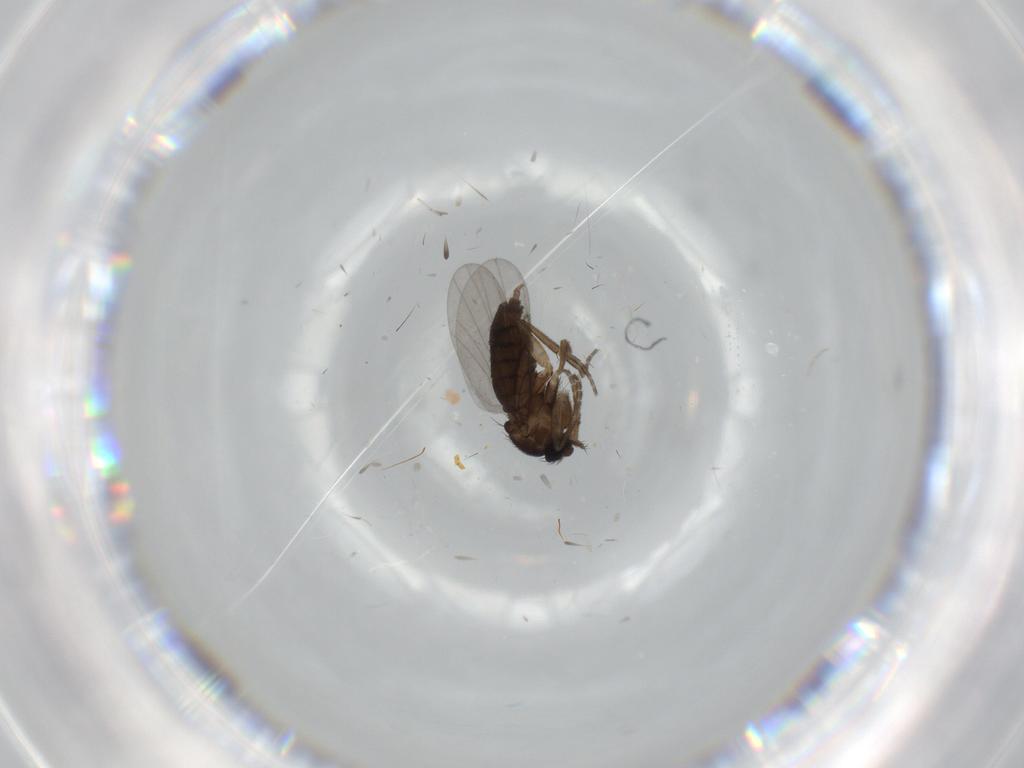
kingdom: Animalia
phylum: Arthropoda
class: Insecta
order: Diptera
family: Milichiidae
